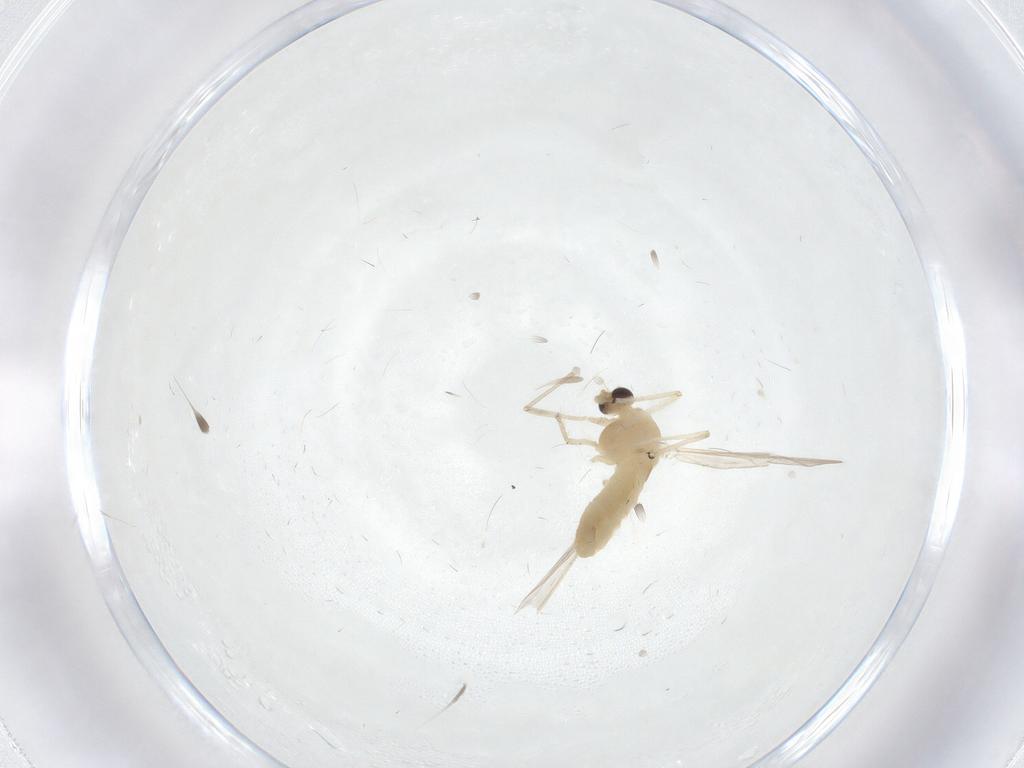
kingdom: Animalia
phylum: Arthropoda
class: Insecta
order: Diptera
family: Chironomidae
